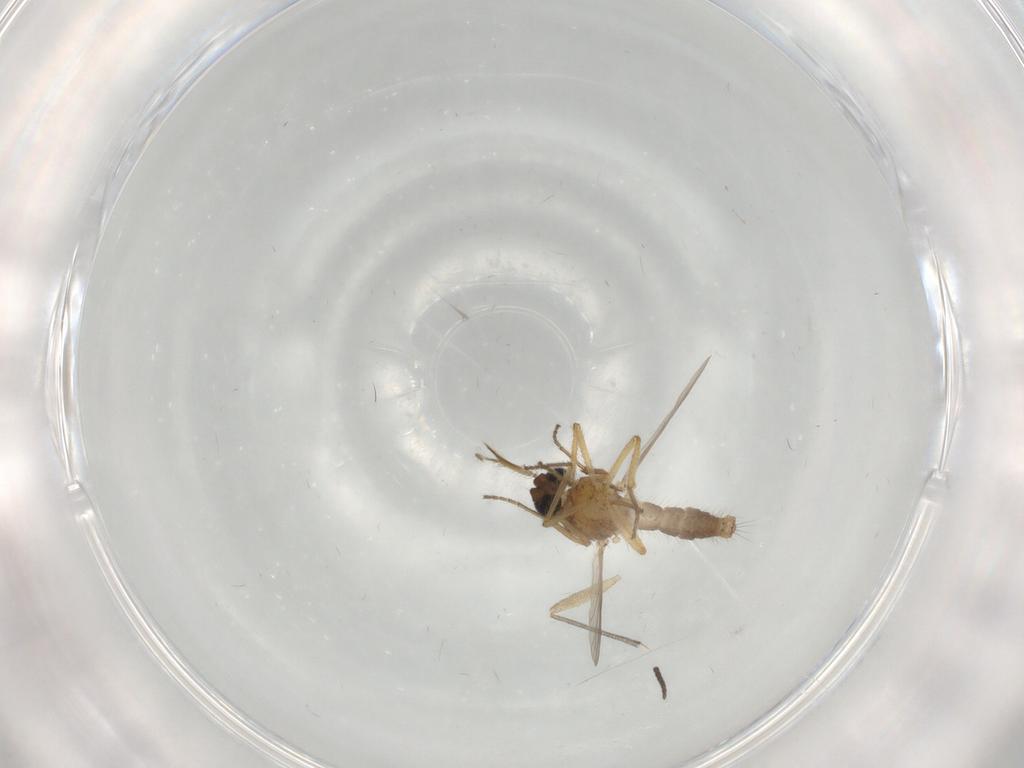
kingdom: Animalia
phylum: Arthropoda
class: Insecta
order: Diptera
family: Ceratopogonidae
